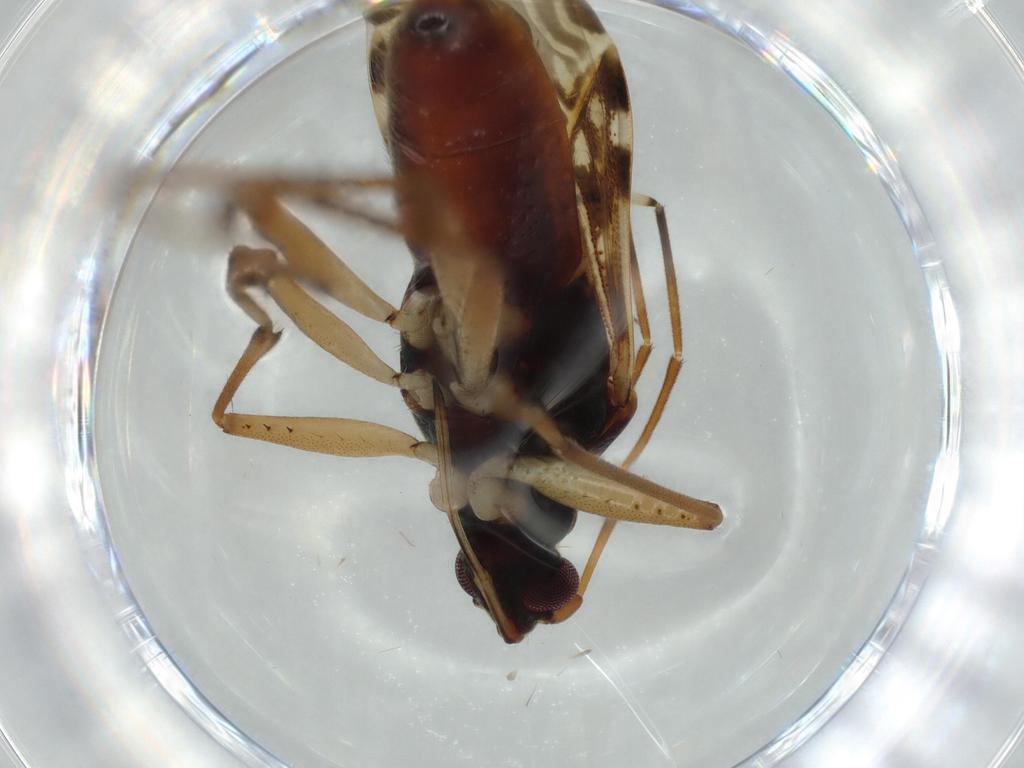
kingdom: Animalia
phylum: Arthropoda
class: Insecta
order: Hemiptera
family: Rhyparochromidae
